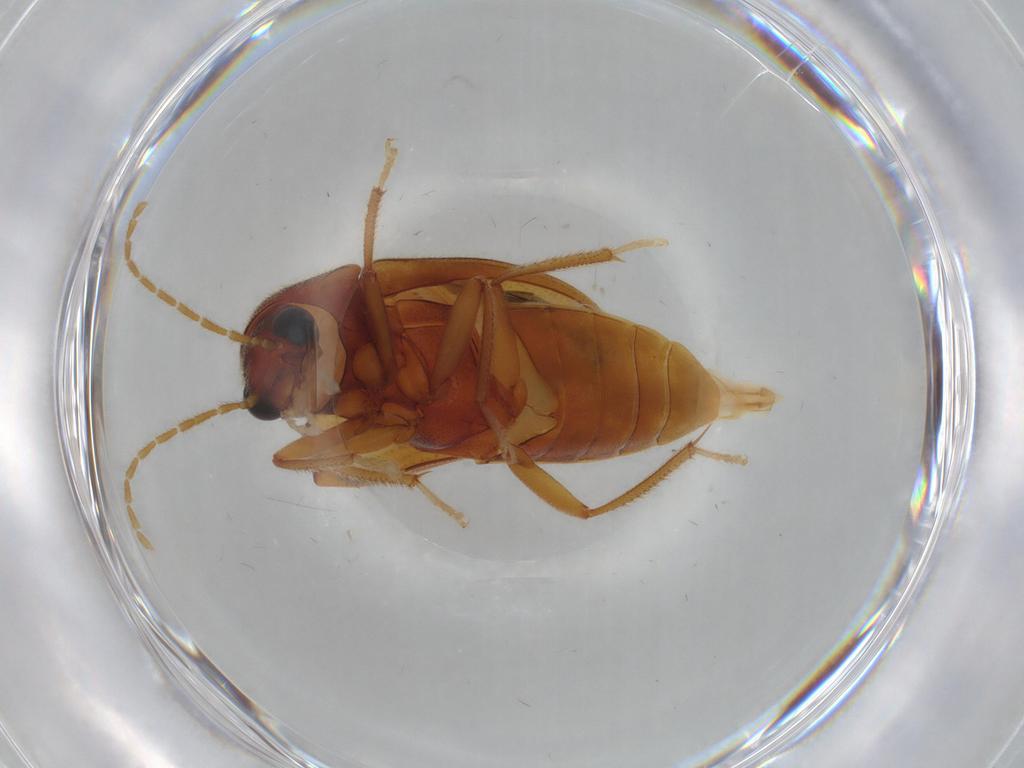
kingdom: Animalia
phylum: Arthropoda
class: Insecta
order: Coleoptera
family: Ptilodactylidae
